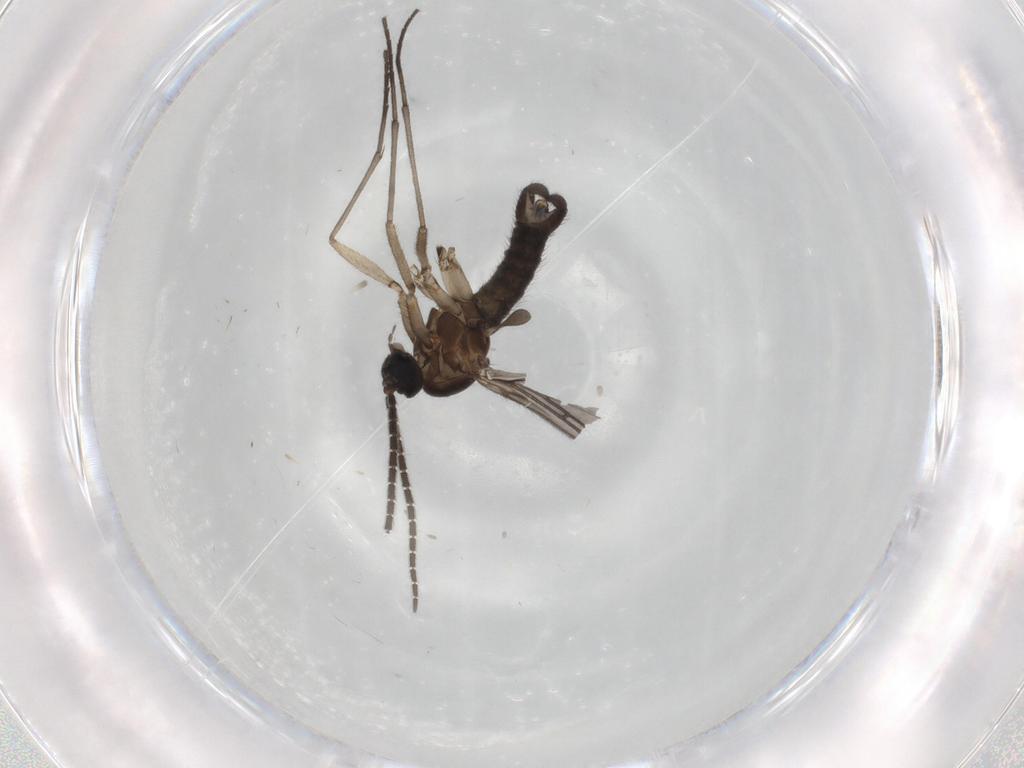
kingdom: Animalia
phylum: Arthropoda
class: Insecta
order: Diptera
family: Sciaridae
